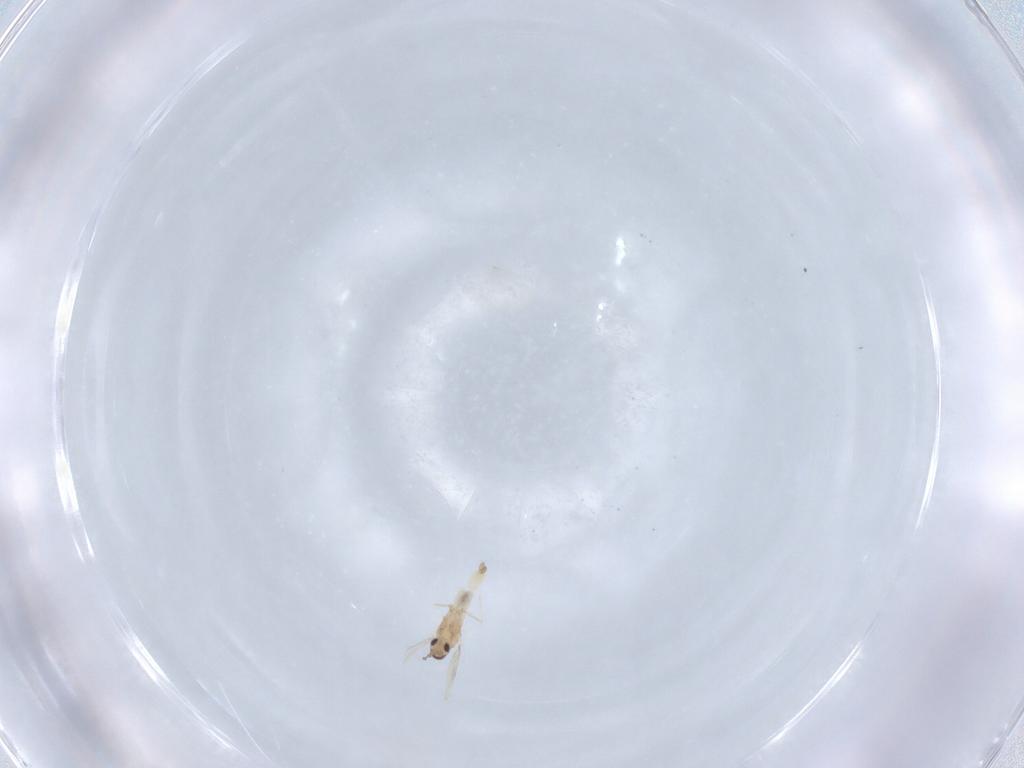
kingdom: Animalia
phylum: Arthropoda
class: Insecta
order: Diptera
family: Cecidomyiidae
